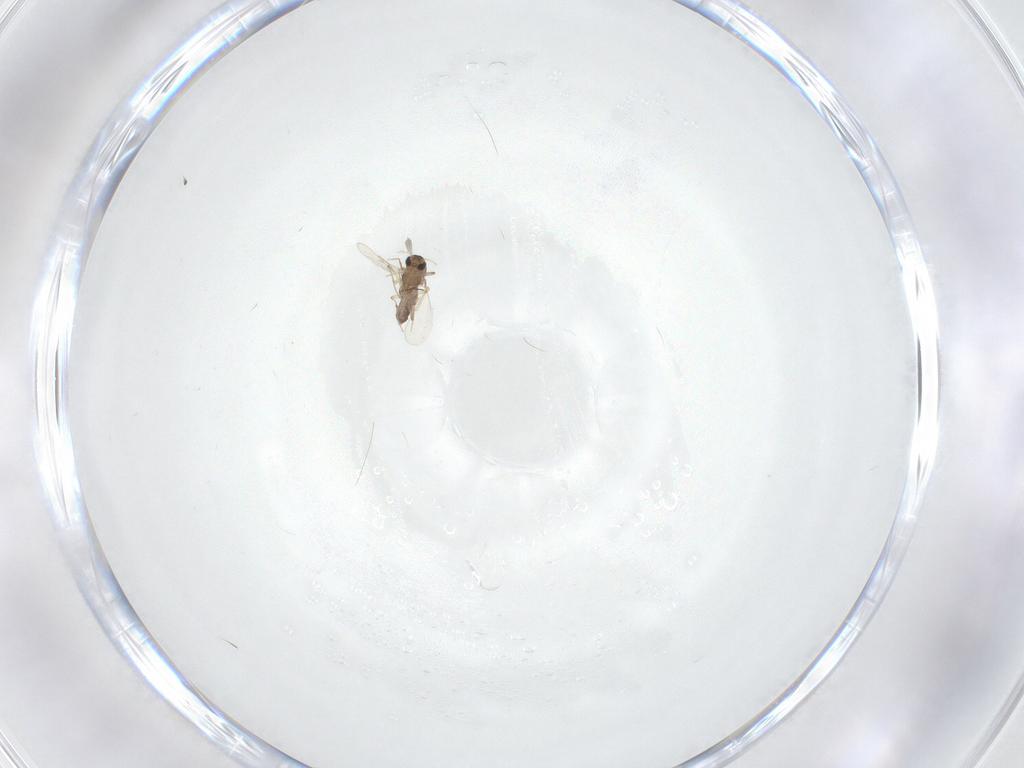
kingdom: Animalia
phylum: Arthropoda
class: Insecta
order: Diptera
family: Chironomidae
